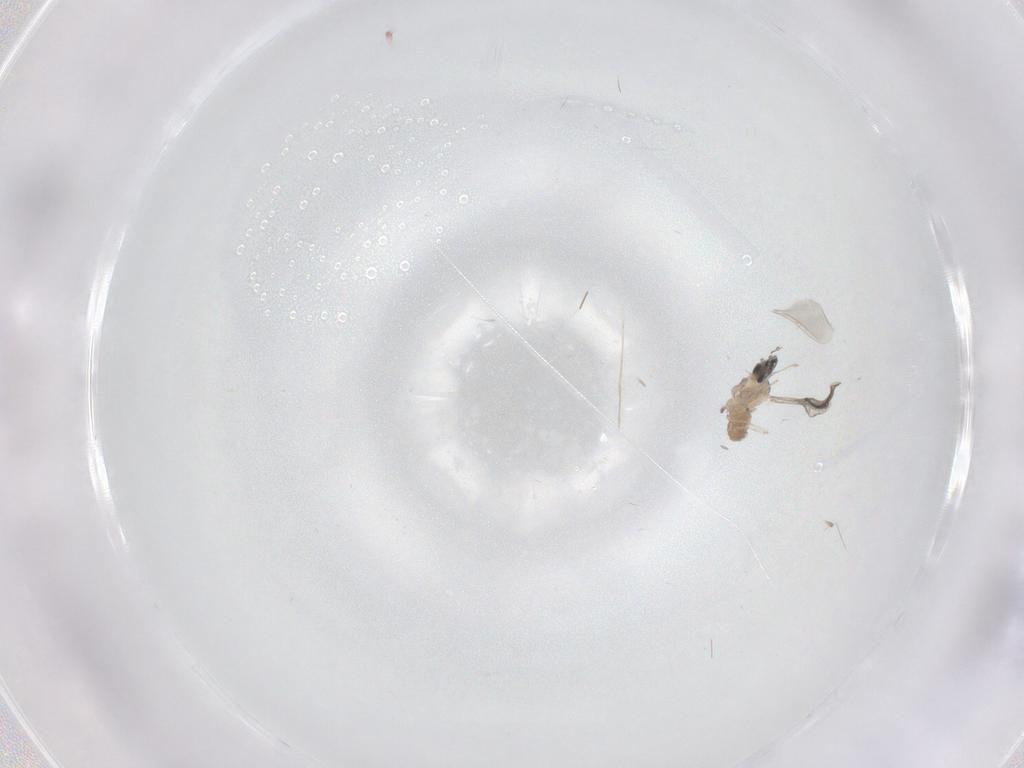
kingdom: Animalia
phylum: Arthropoda
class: Insecta
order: Diptera
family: Cecidomyiidae
